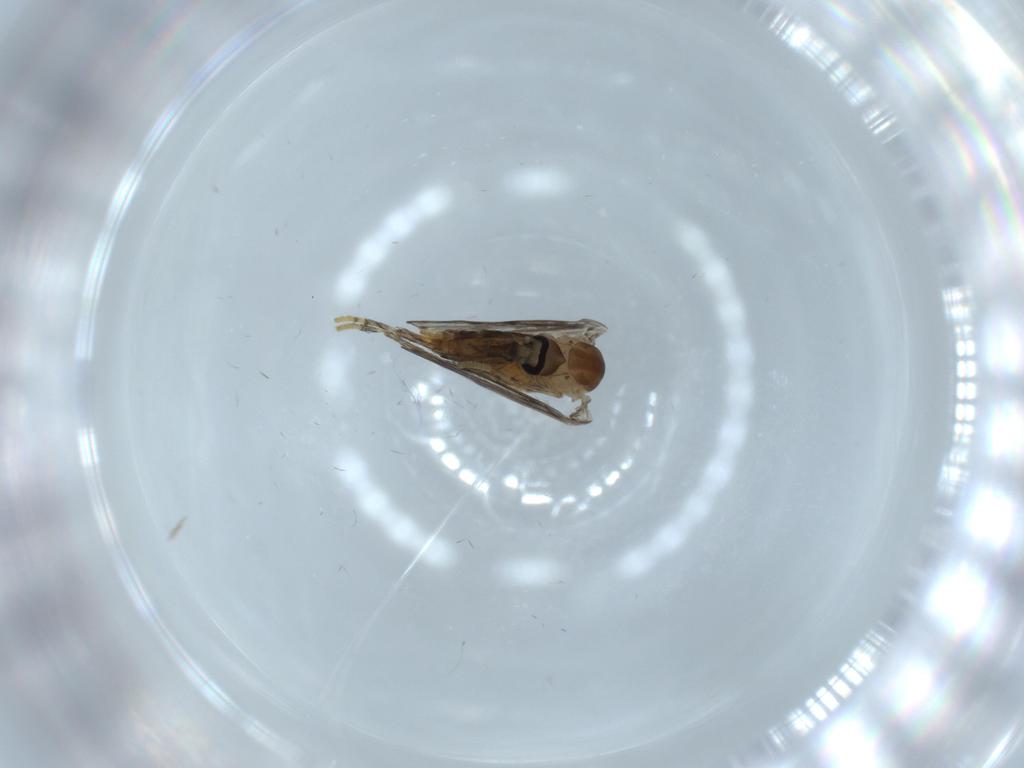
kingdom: Animalia
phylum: Arthropoda
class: Insecta
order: Diptera
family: Psychodidae
